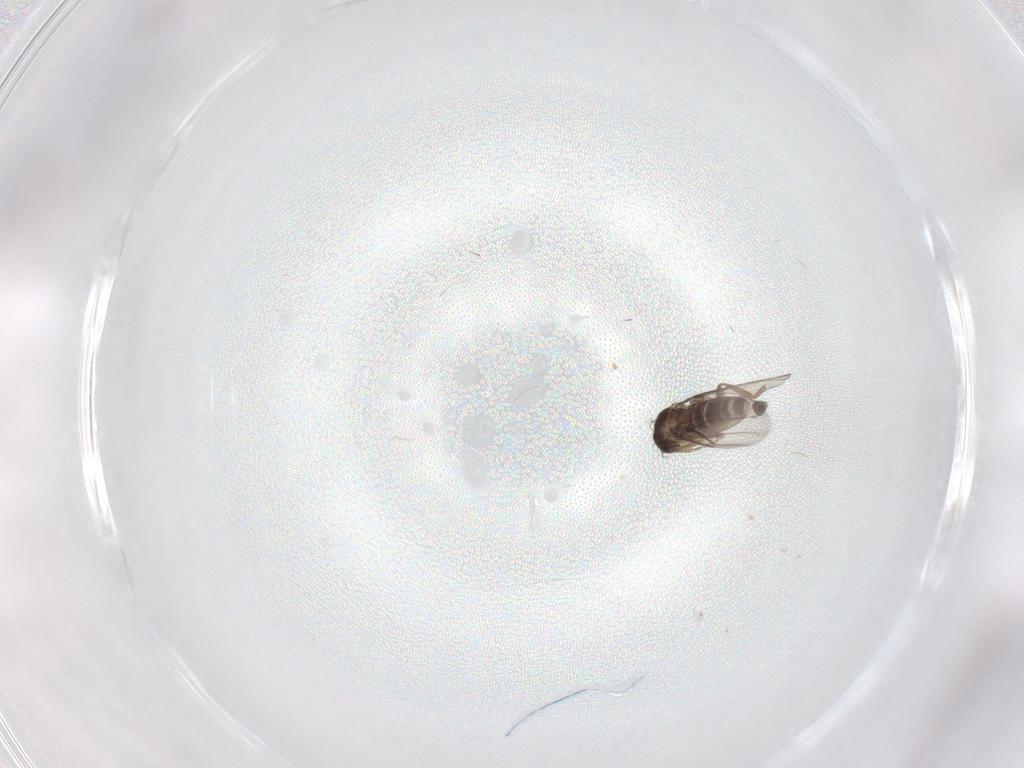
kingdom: Animalia
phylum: Arthropoda
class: Insecta
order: Diptera
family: Phoridae
